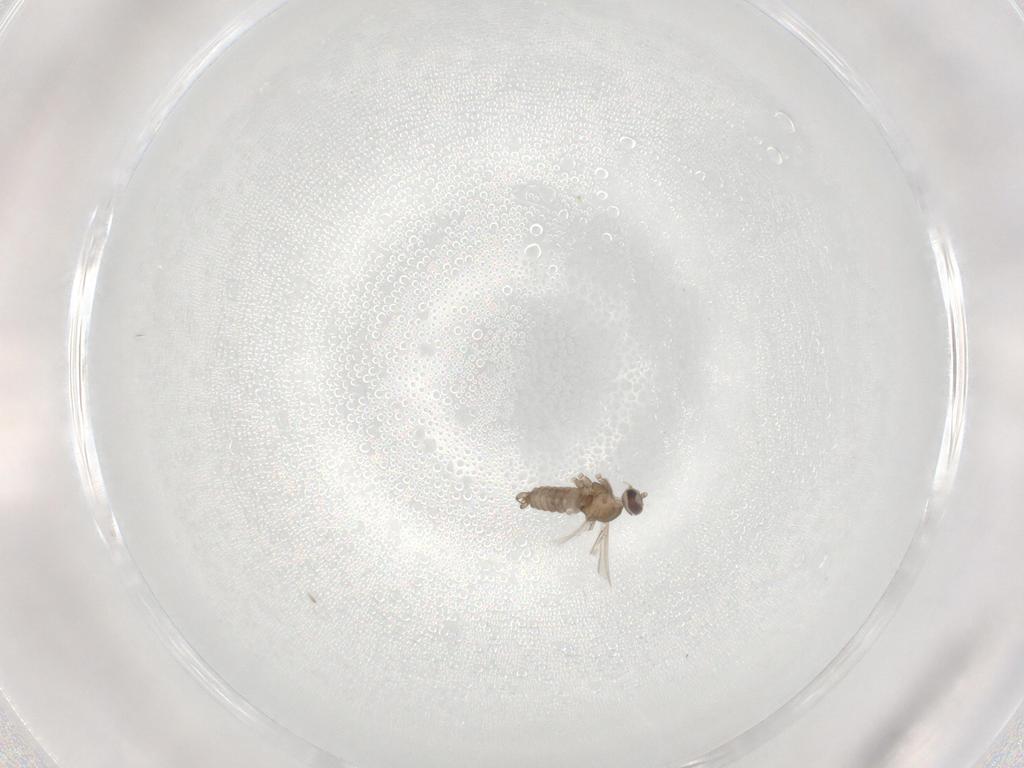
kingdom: Animalia
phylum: Arthropoda
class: Insecta
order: Diptera
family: Cecidomyiidae
